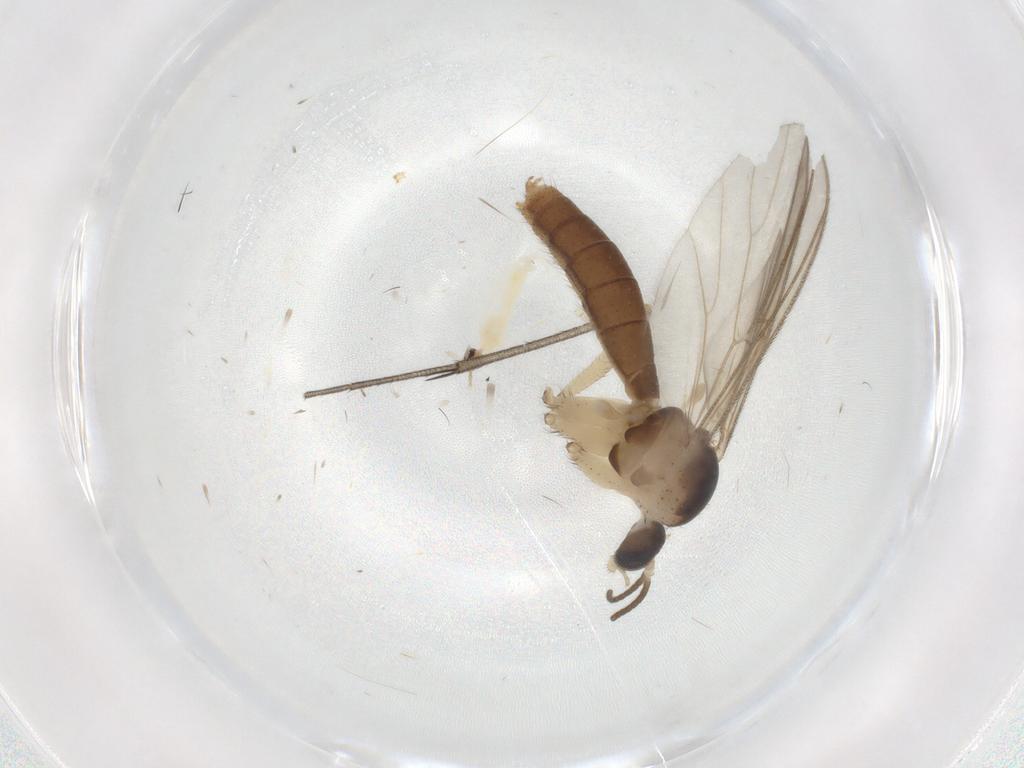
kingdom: Animalia
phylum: Arthropoda
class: Insecta
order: Diptera
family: Mycetophilidae
